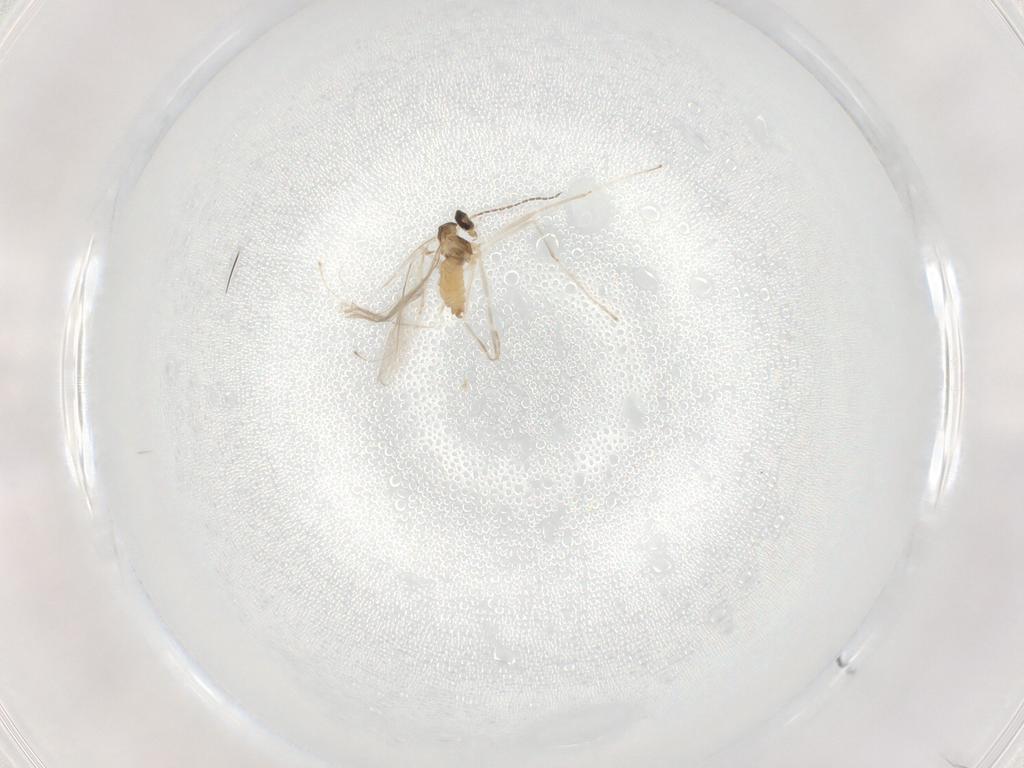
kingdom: Animalia
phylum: Arthropoda
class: Insecta
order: Diptera
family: Cecidomyiidae
